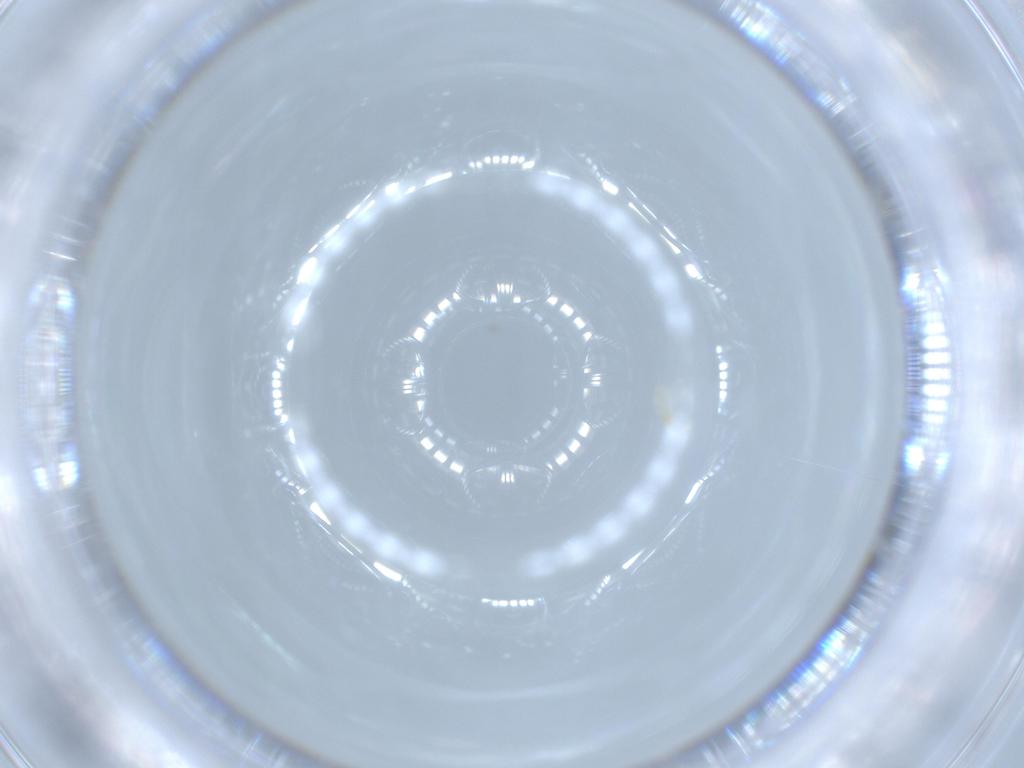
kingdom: Animalia
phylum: Arthropoda
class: Insecta
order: Diptera
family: Hybotidae
